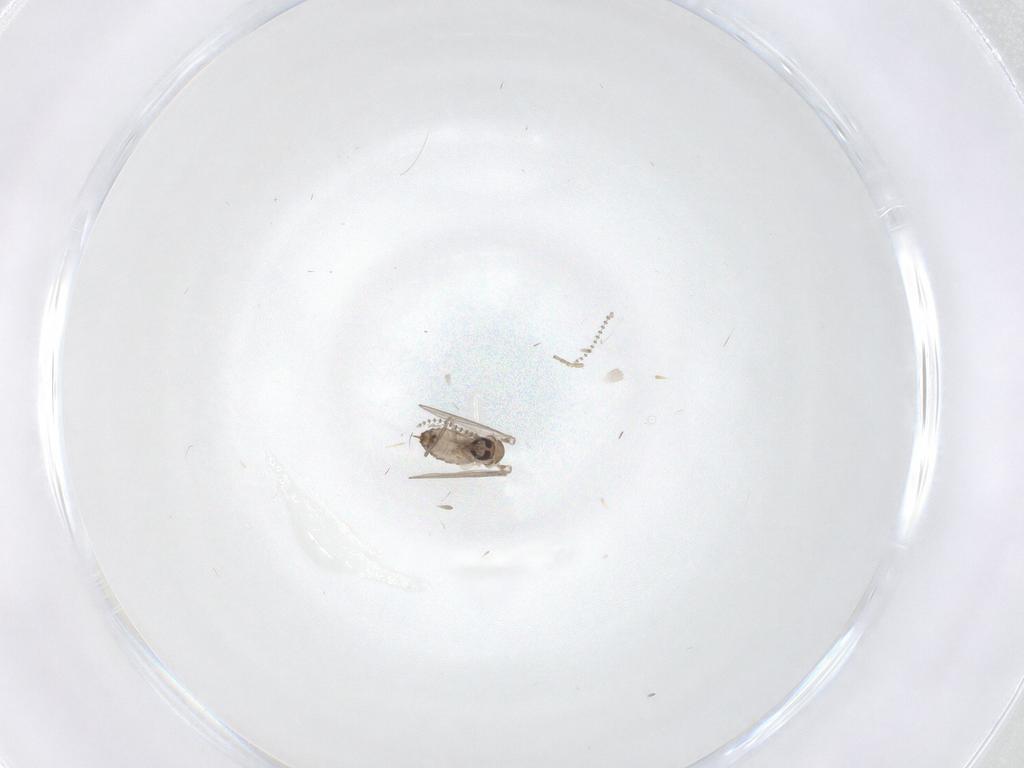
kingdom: Animalia
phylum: Arthropoda
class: Insecta
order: Diptera
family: Psychodidae
